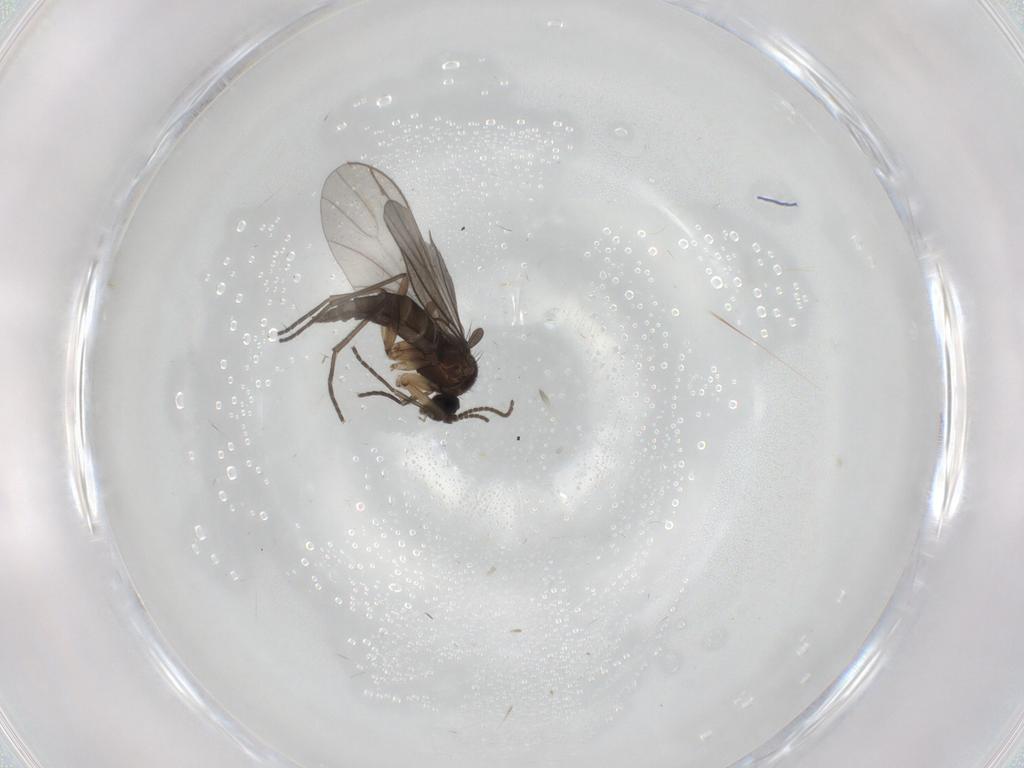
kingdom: Animalia
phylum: Arthropoda
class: Insecta
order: Diptera
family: Sciaridae
